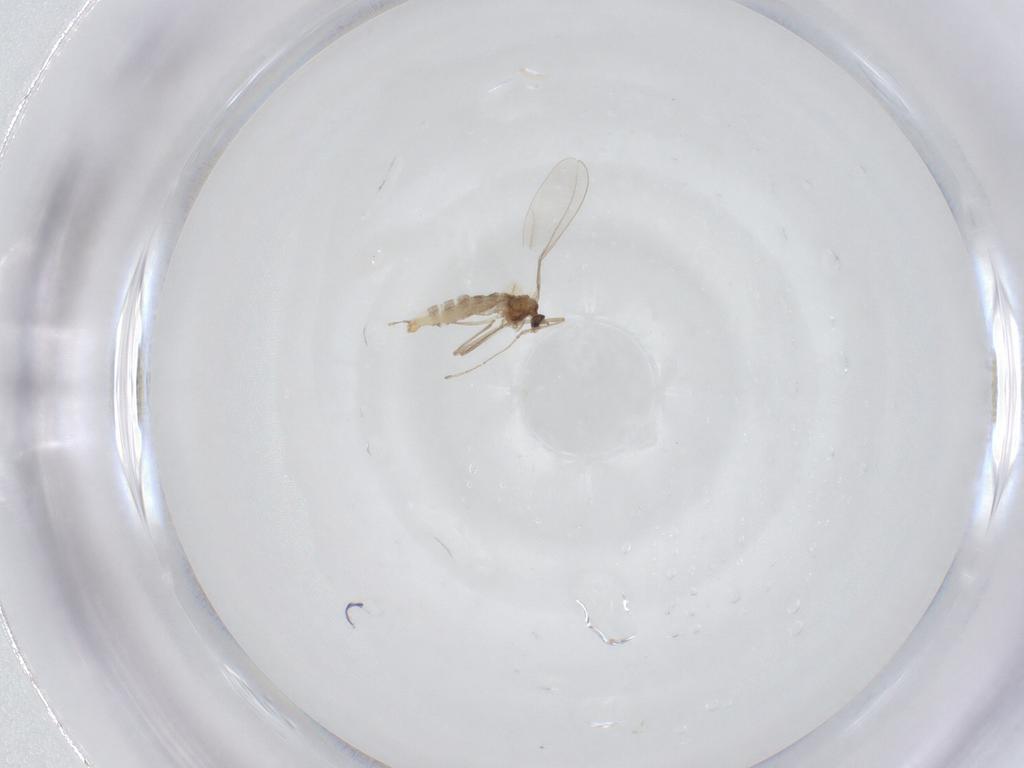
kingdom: Animalia
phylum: Arthropoda
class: Insecta
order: Diptera
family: Cecidomyiidae
